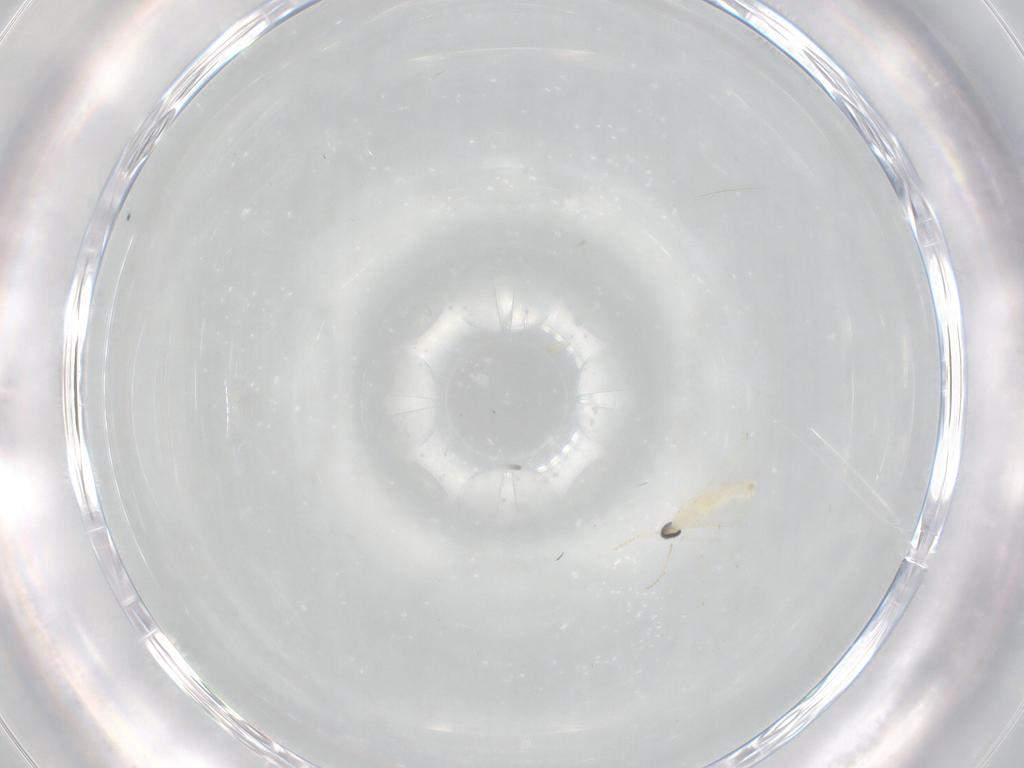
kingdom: Animalia
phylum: Arthropoda
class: Insecta
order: Diptera
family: Cecidomyiidae
